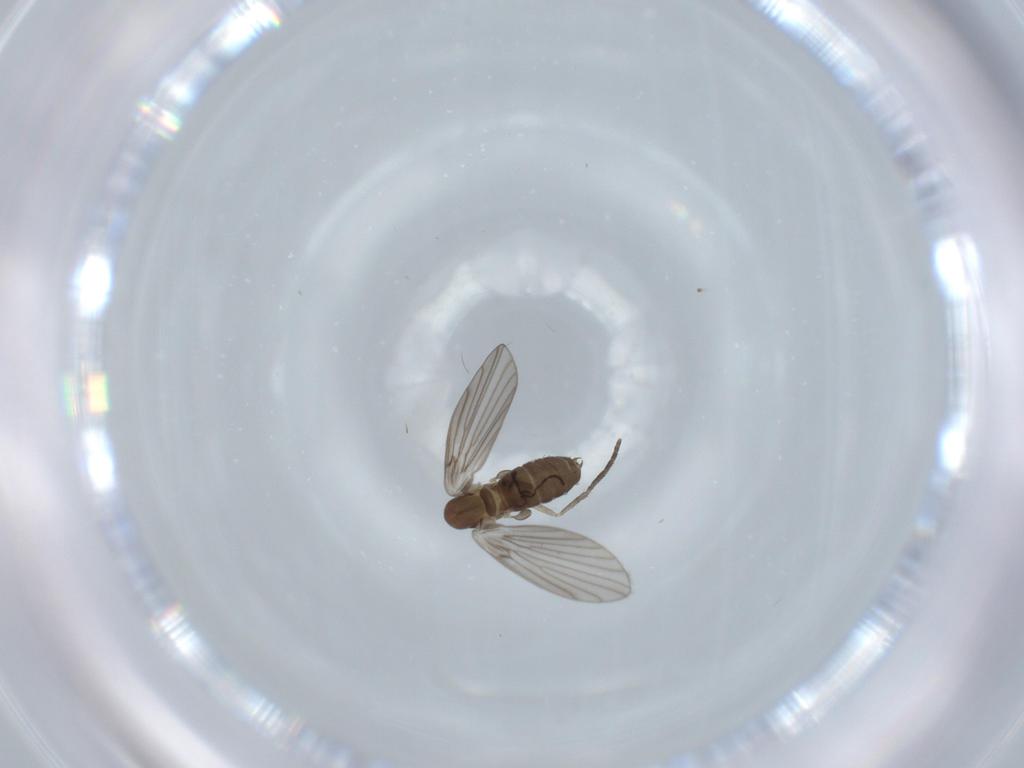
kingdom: Animalia
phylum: Arthropoda
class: Insecta
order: Diptera
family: Psychodidae
